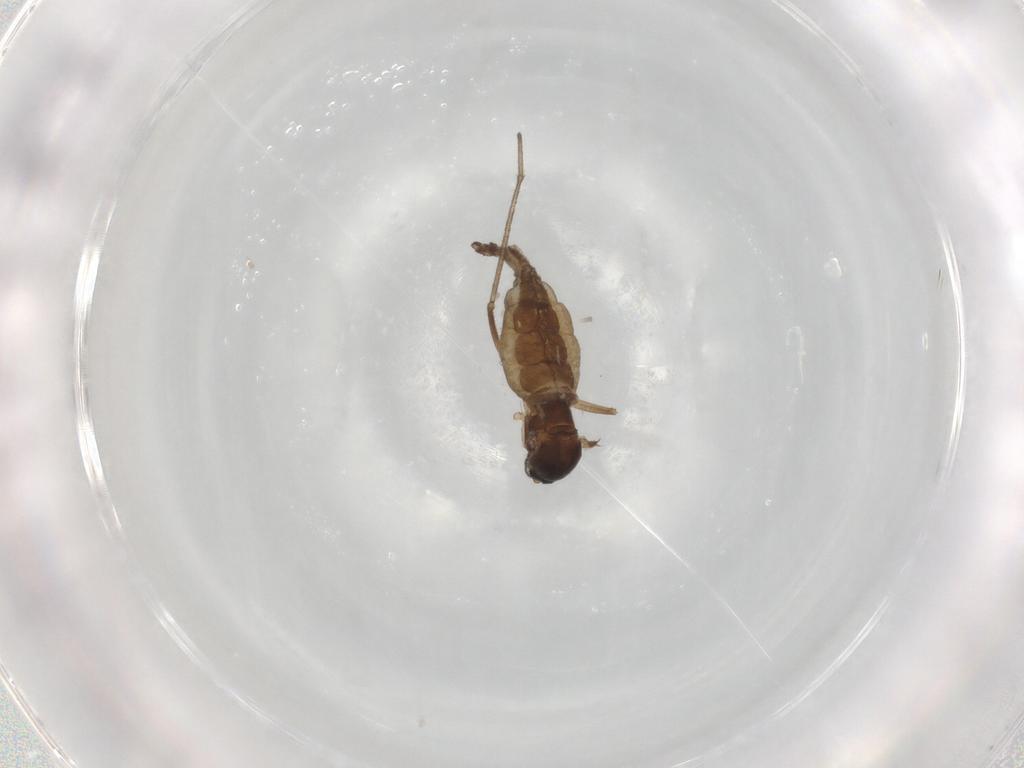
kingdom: Animalia
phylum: Arthropoda
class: Insecta
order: Diptera
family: Sciaridae
